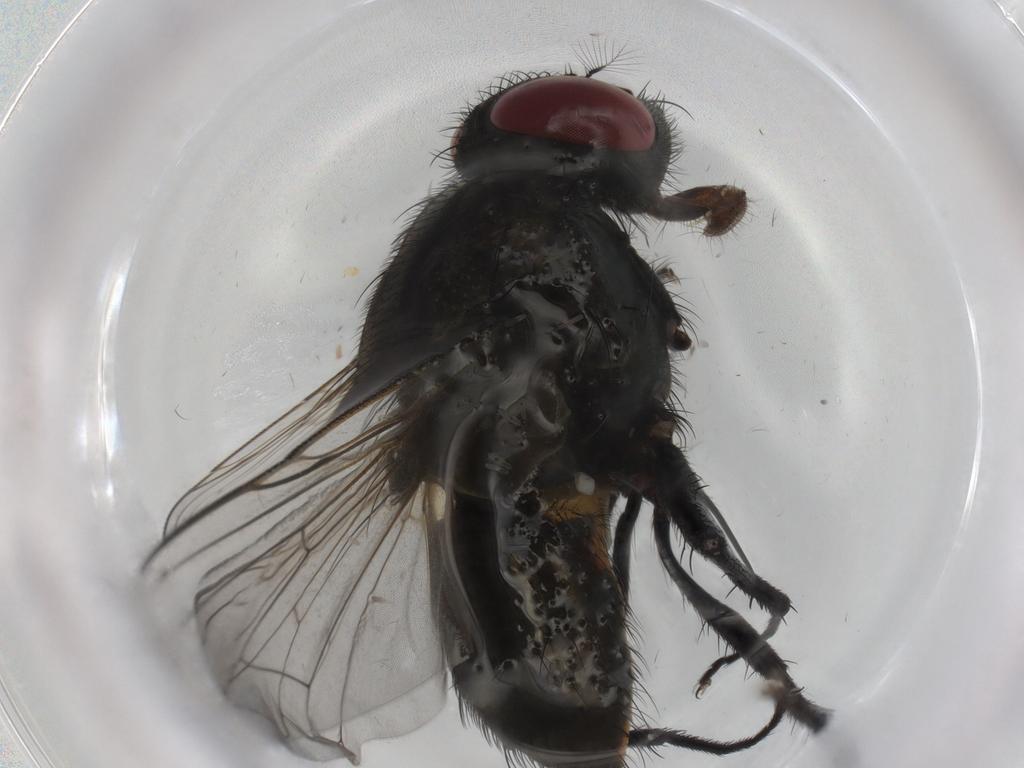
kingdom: Animalia
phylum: Arthropoda
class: Insecta
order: Diptera
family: Cecidomyiidae
